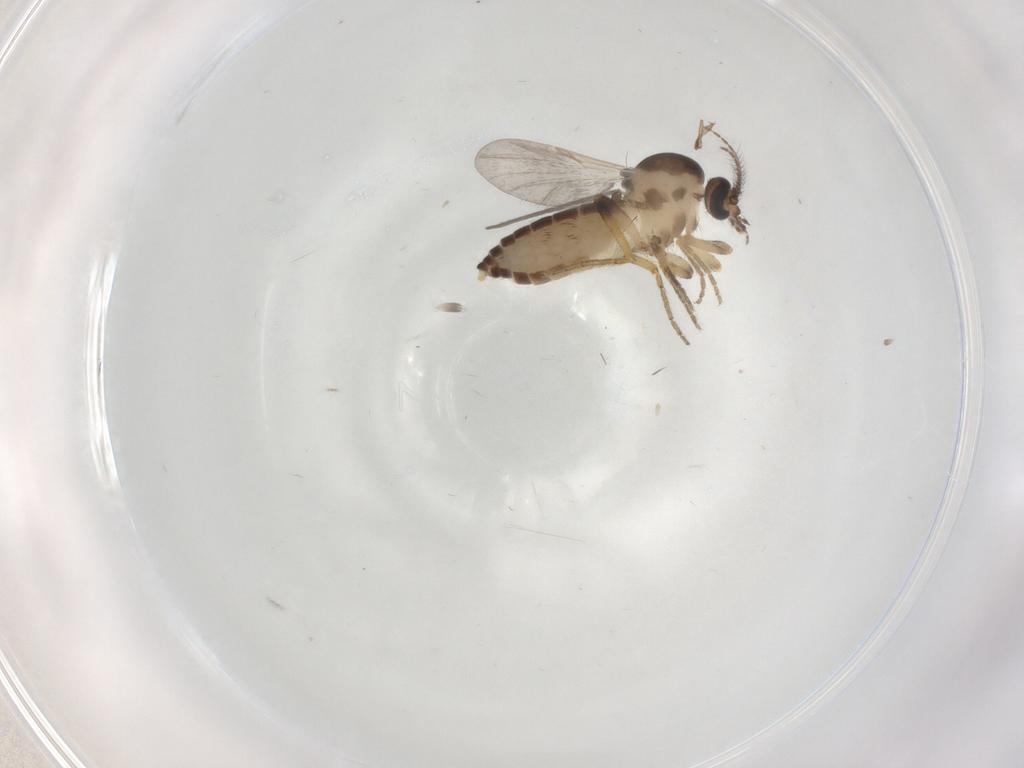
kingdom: Animalia
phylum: Arthropoda
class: Insecta
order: Diptera
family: Ceratopogonidae
